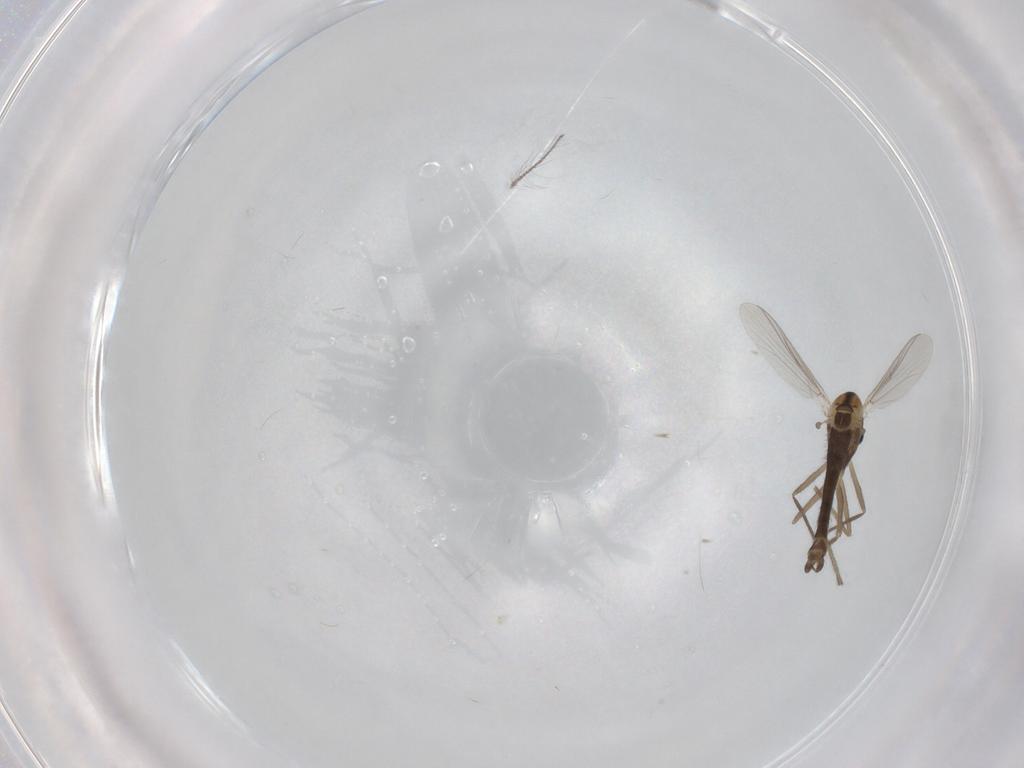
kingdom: Animalia
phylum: Arthropoda
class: Insecta
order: Diptera
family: Chironomidae
